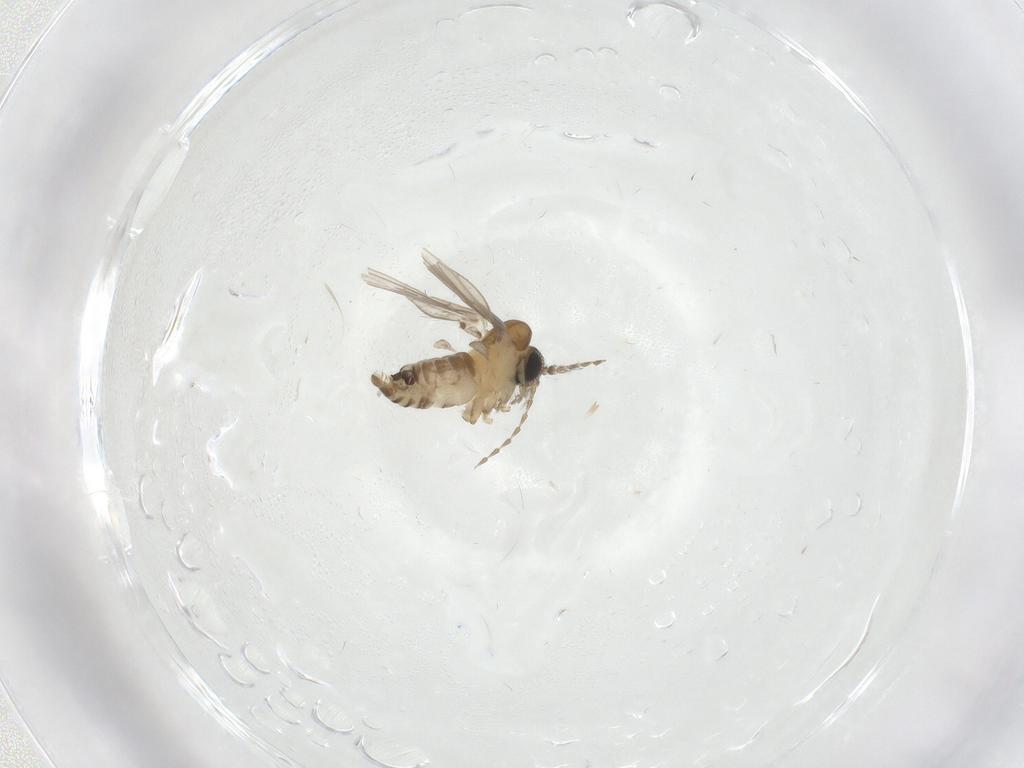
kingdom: Animalia
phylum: Arthropoda
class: Insecta
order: Diptera
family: Psychodidae
